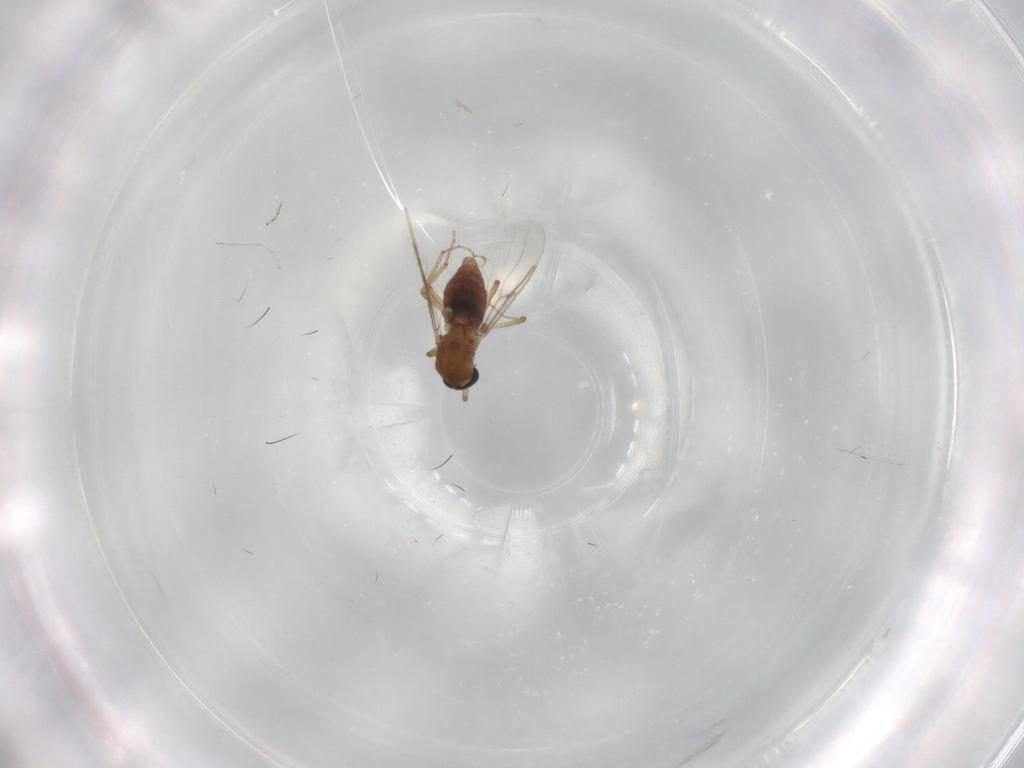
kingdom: Animalia
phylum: Arthropoda
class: Insecta
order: Diptera
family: Ceratopogonidae
